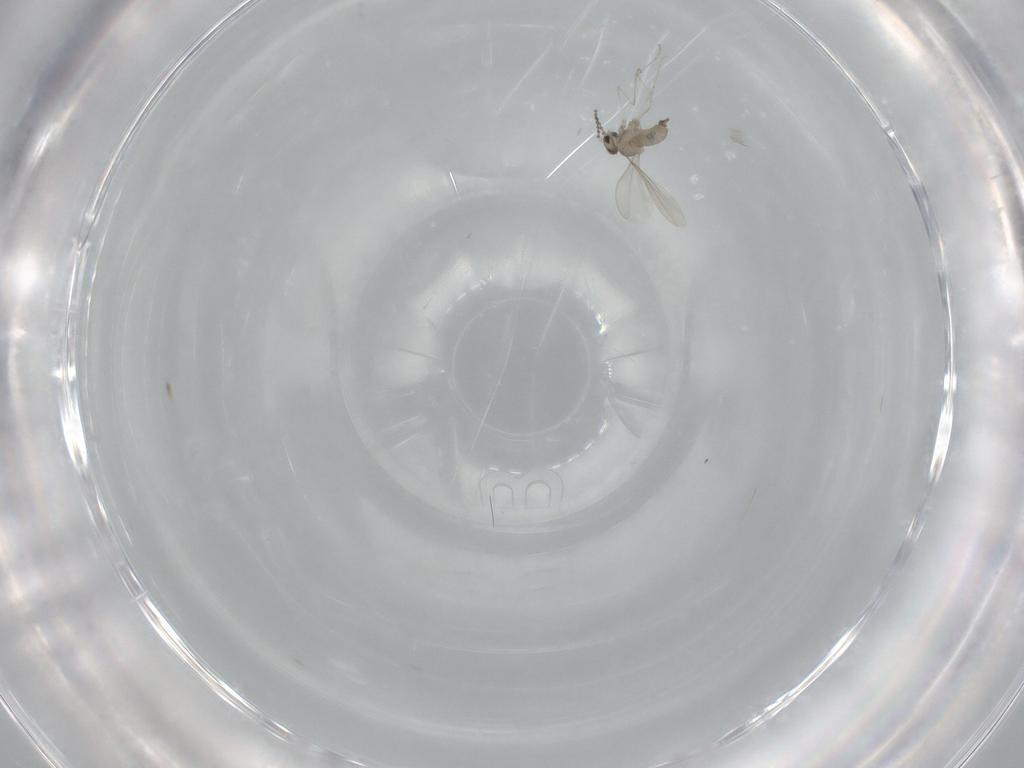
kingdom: Animalia
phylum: Arthropoda
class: Insecta
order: Diptera
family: Cecidomyiidae
